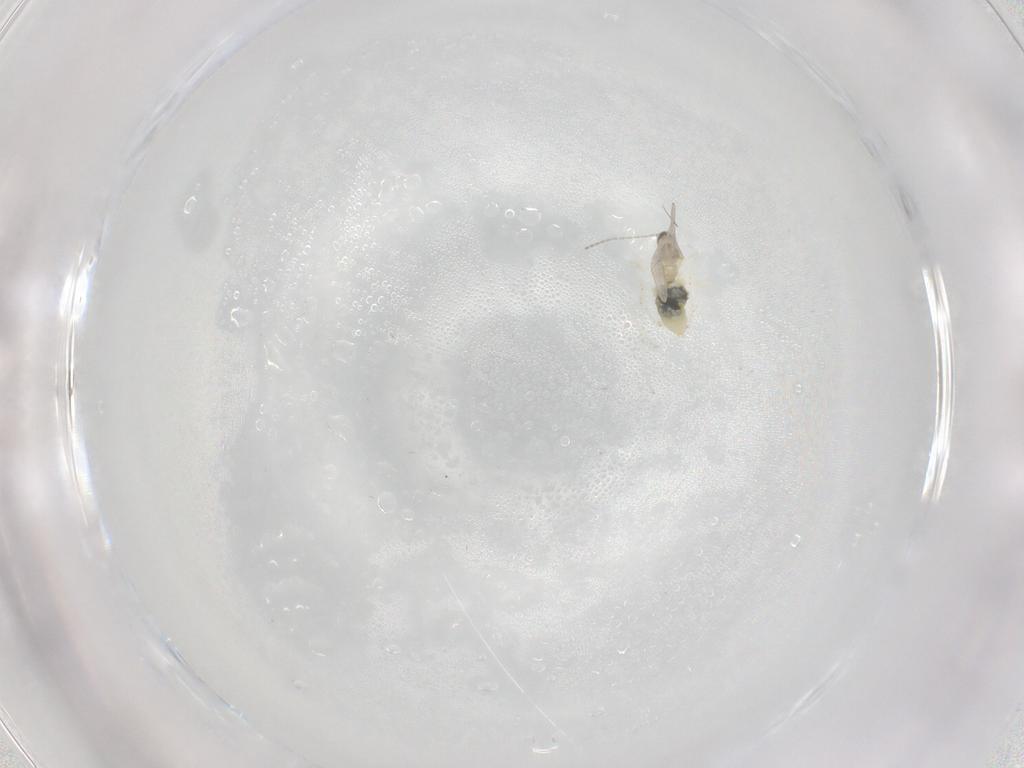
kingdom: Animalia
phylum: Arthropoda
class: Insecta
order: Diptera
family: Cecidomyiidae
